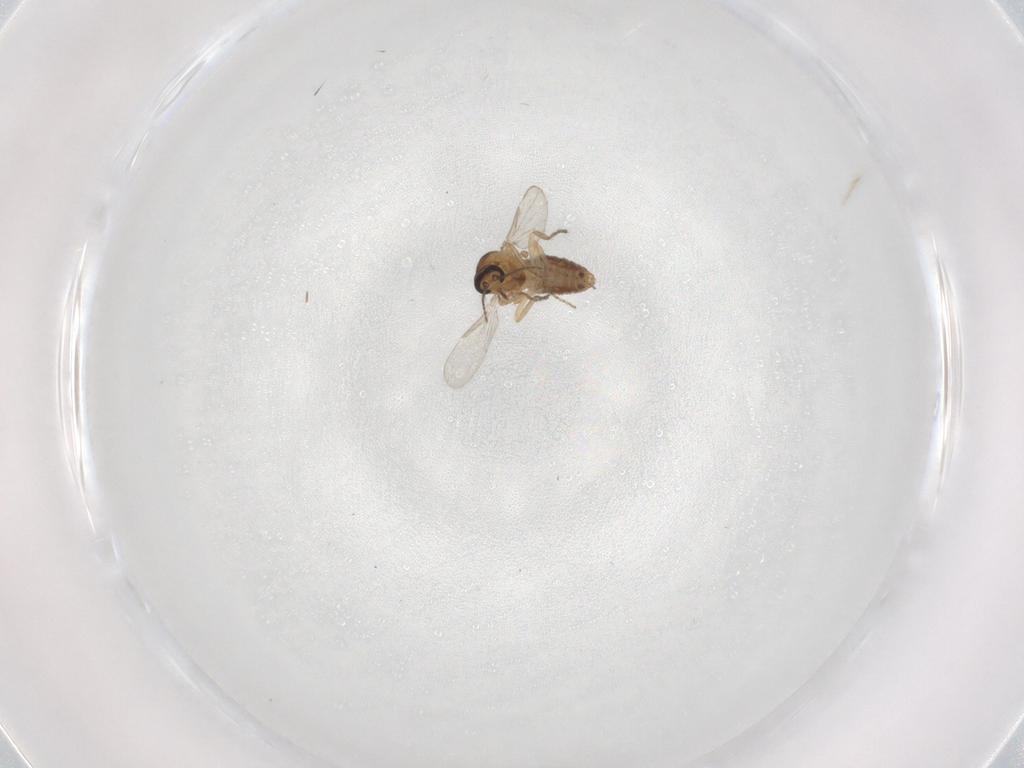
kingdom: Animalia
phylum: Arthropoda
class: Insecta
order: Diptera
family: Ceratopogonidae
